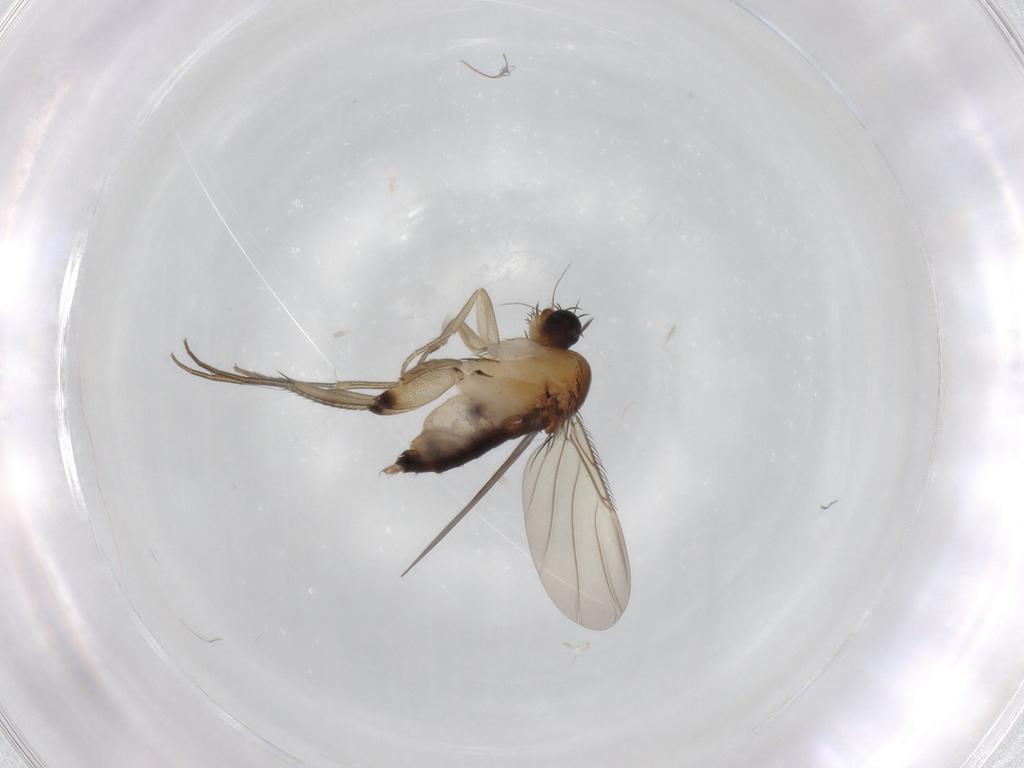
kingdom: Animalia
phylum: Arthropoda
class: Insecta
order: Diptera
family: Phoridae
